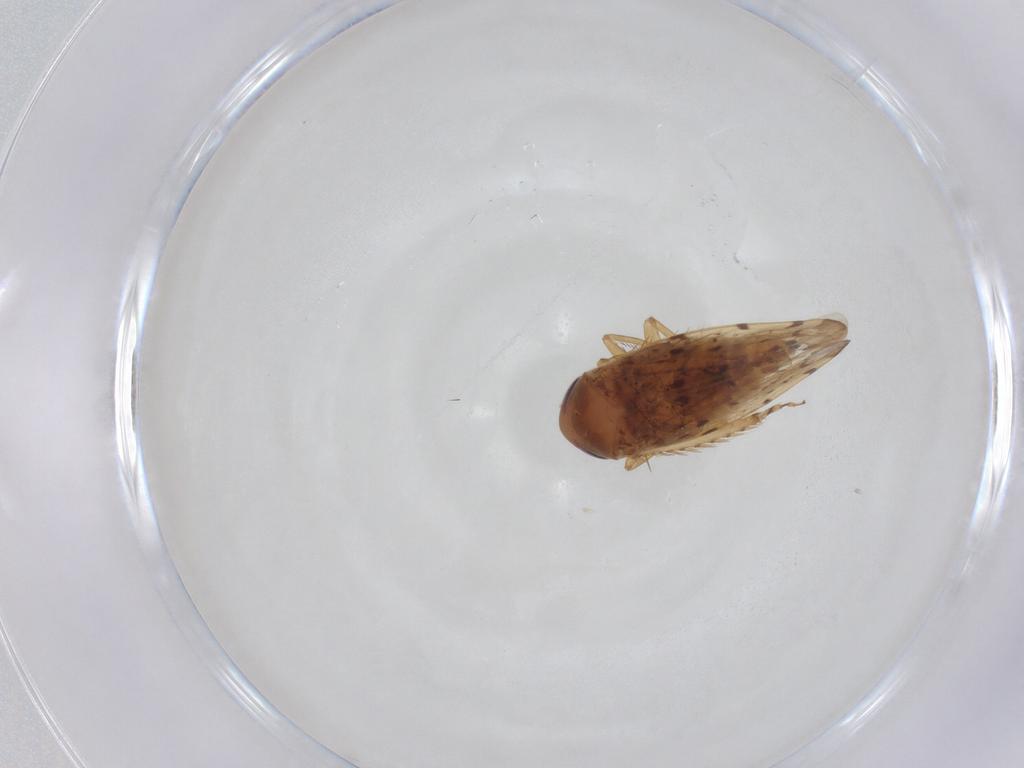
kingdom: Animalia
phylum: Arthropoda
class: Insecta
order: Hemiptera
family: Cicadellidae
